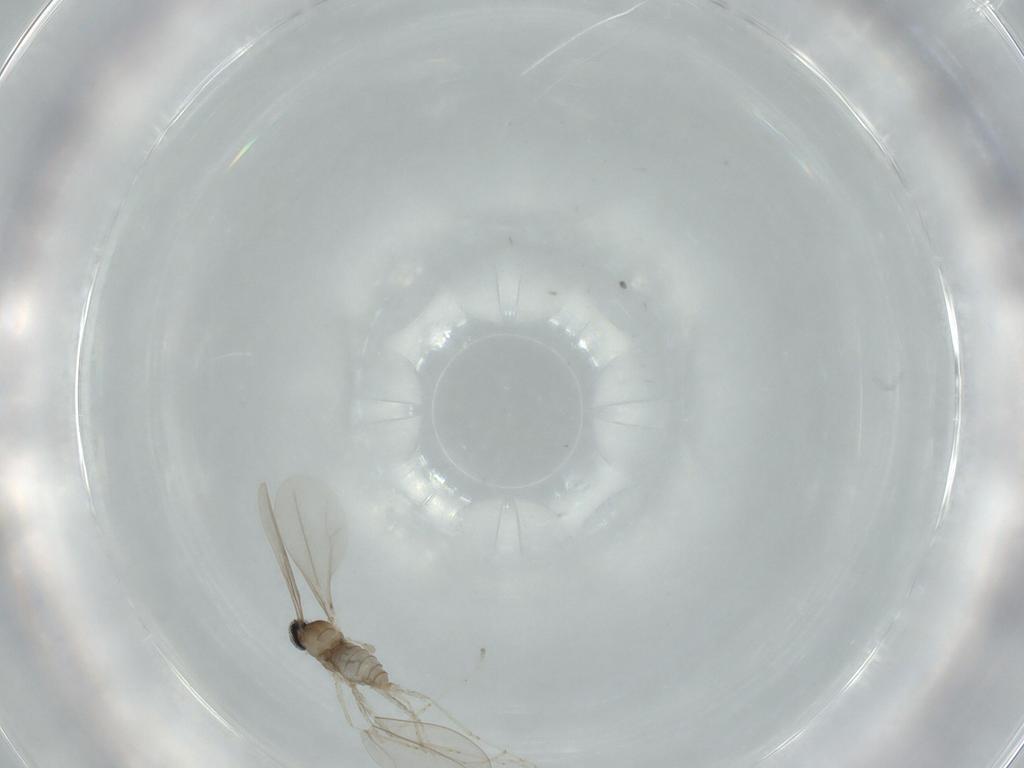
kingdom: Animalia
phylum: Arthropoda
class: Insecta
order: Diptera
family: Cecidomyiidae
